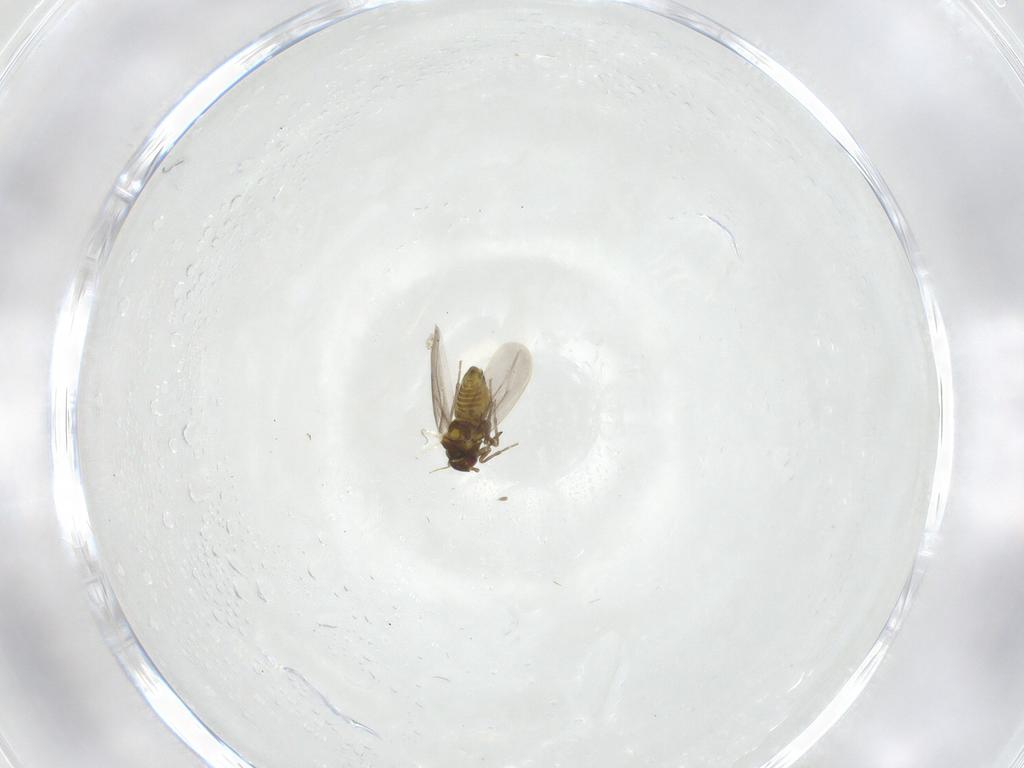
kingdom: Animalia
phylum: Arthropoda
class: Insecta
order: Hemiptera
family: Aleyrodidae
